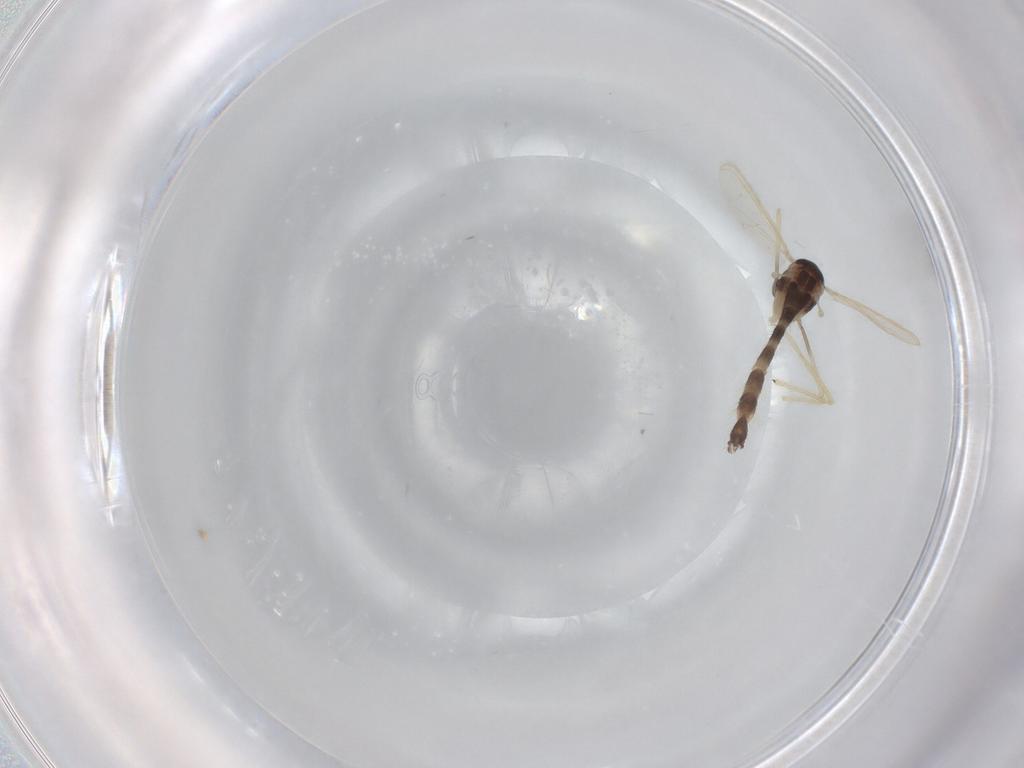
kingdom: Animalia
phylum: Arthropoda
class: Insecta
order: Diptera
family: Chironomidae
